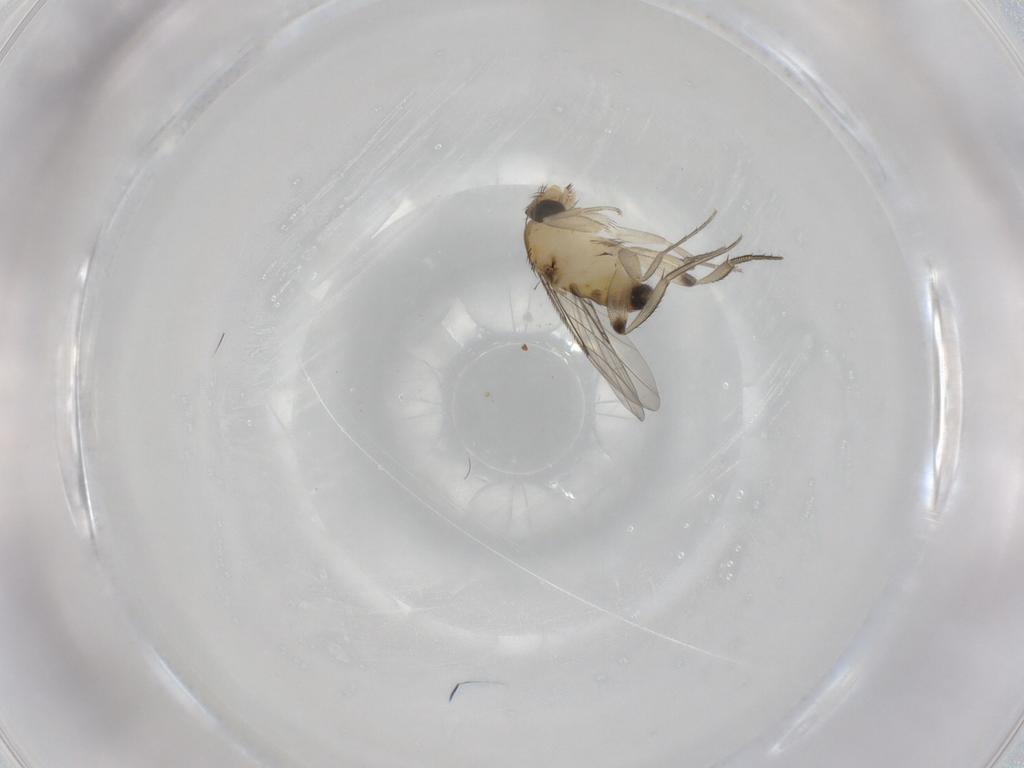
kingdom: Animalia
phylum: Arthropoda
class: Insecta
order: Diptera
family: Phoridae
